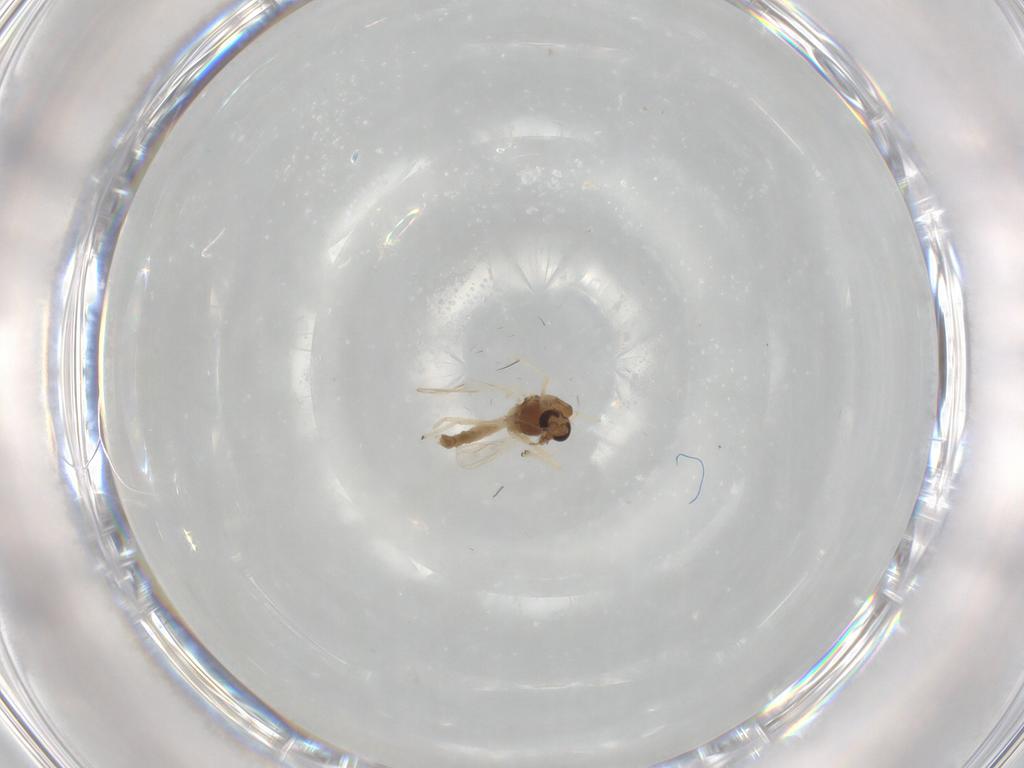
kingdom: Animalia
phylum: Arthropoda
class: Insecta
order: Diptera
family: Chironomidae
